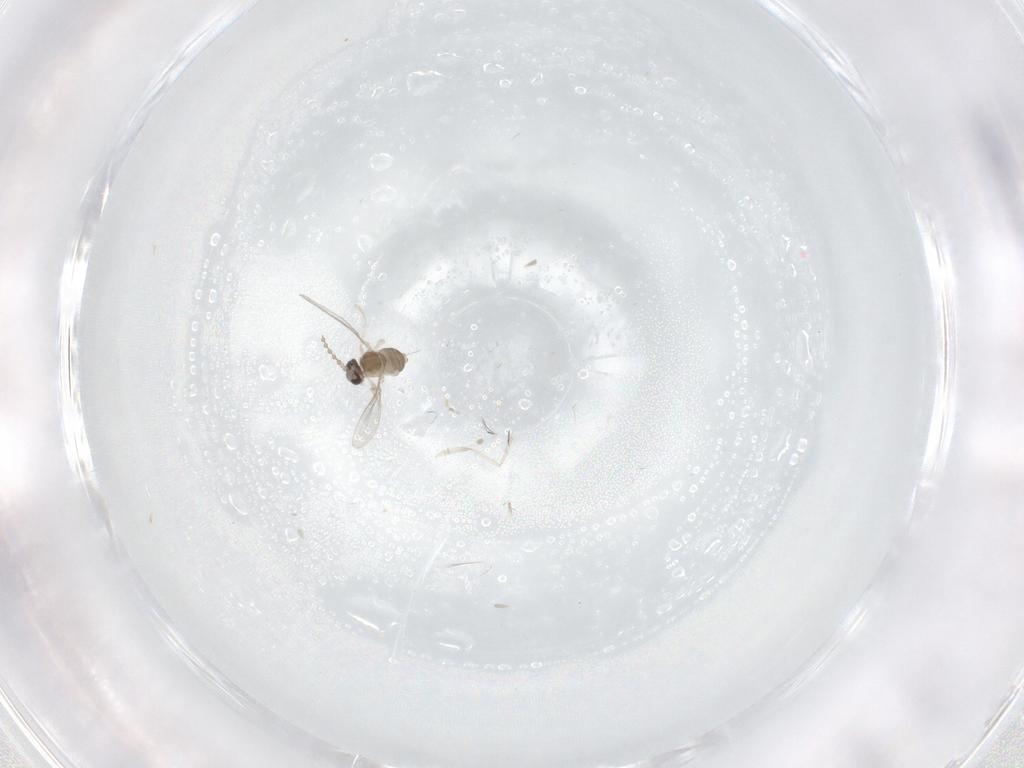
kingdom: Animalia
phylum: Arthropoda
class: Insecta
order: Diptera
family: Cecidomyiidae
